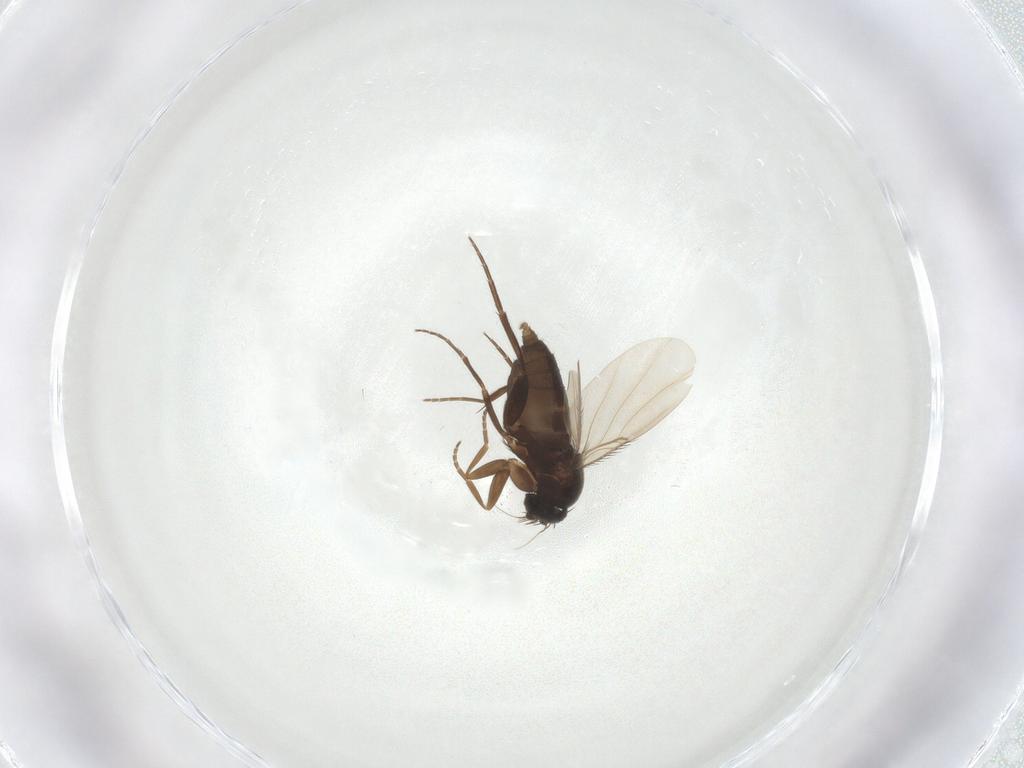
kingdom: Animalia
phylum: Arthropoda
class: Insecta
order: Diptera
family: Phoridae
